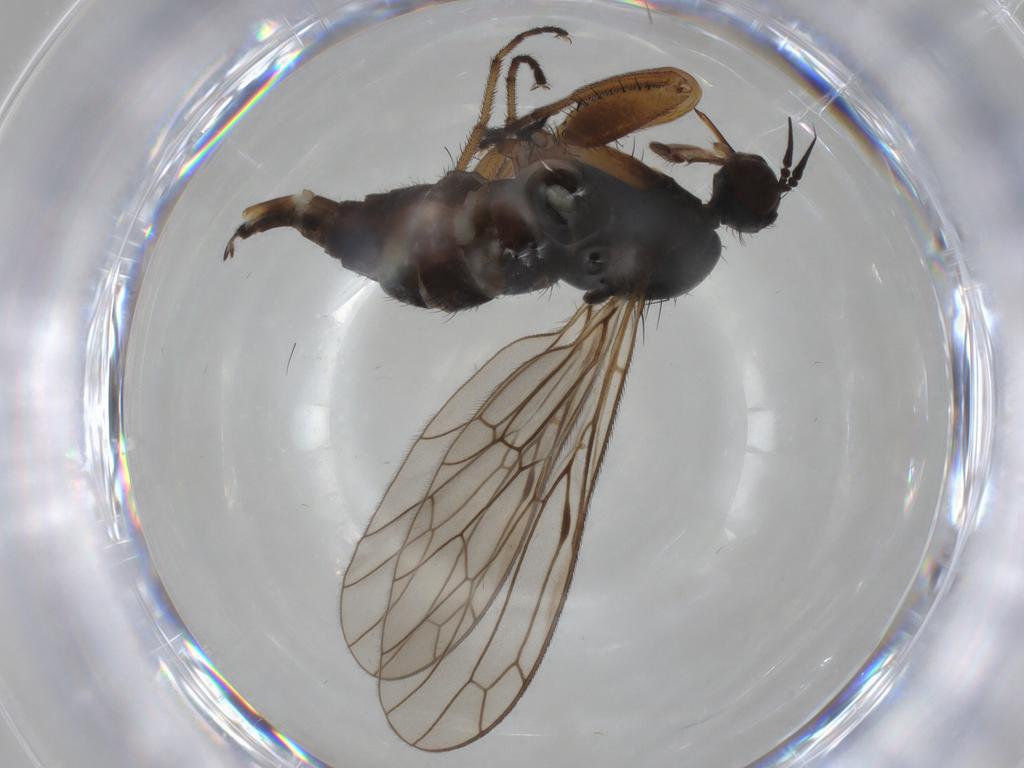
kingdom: Animalia
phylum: Arthropoda
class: Insecta
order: Diptera
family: Chironomidae
